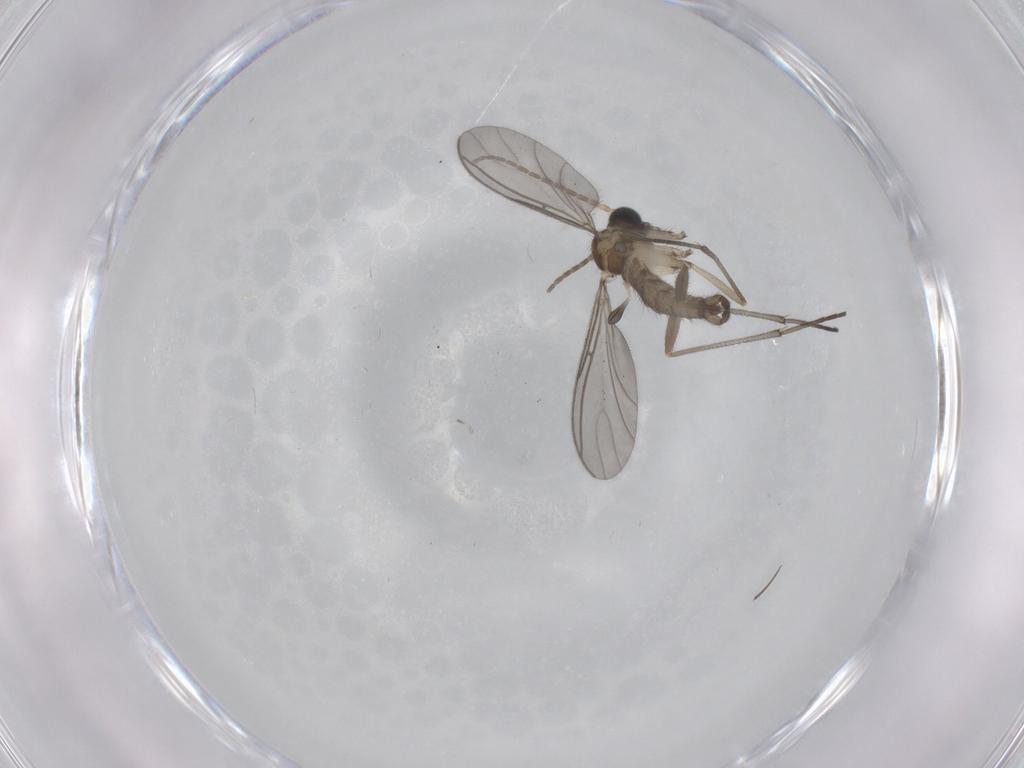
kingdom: Animalia
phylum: Arthropoda
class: Insecta
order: Diptera
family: Sciaridae
